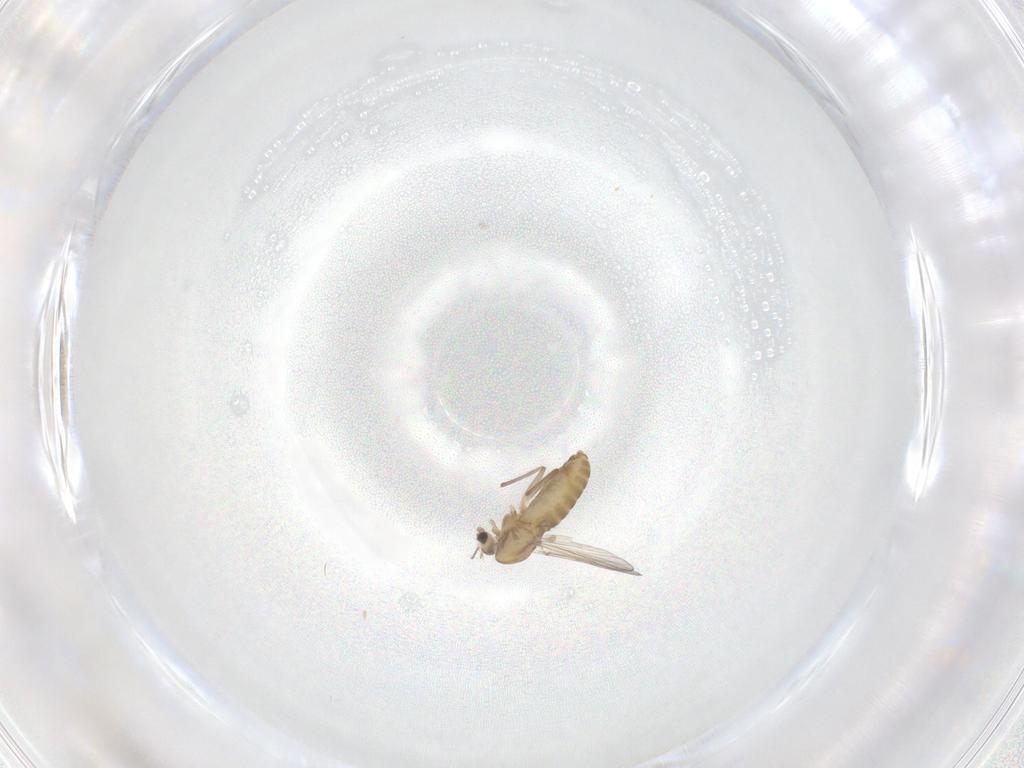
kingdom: Animalia
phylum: Arthropoda
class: Insecta
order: Diptera
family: Chironomidae
